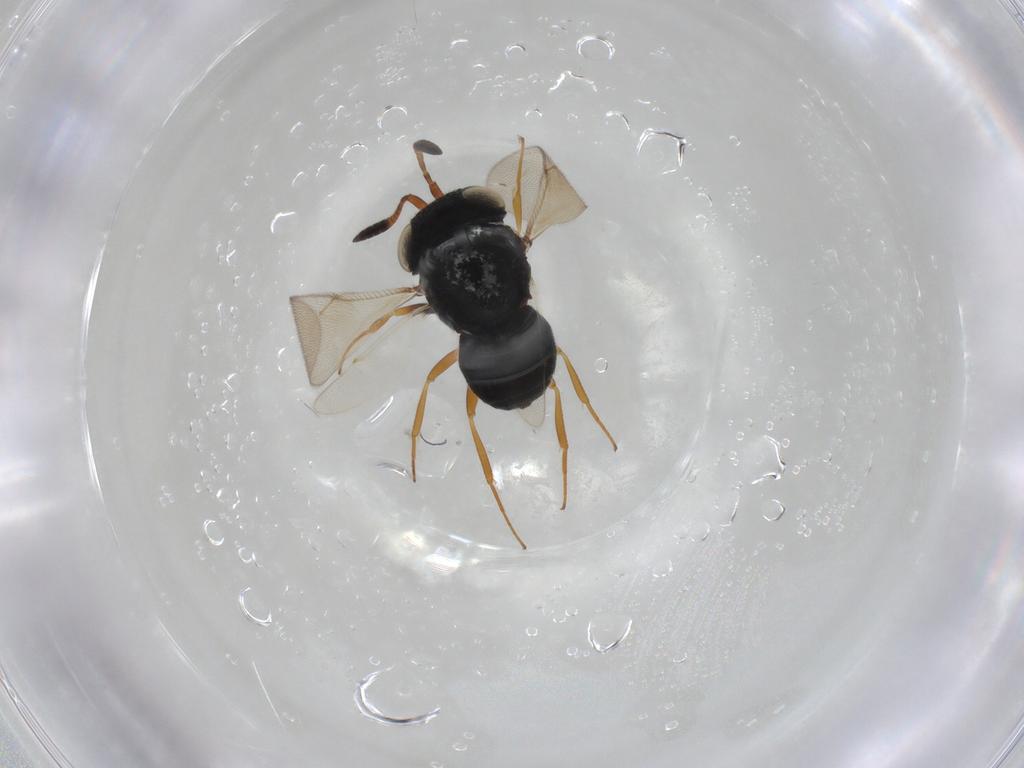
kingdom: Animalia
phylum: Arthropoda
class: Insecta
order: Hymenoptera
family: Scelionidae
